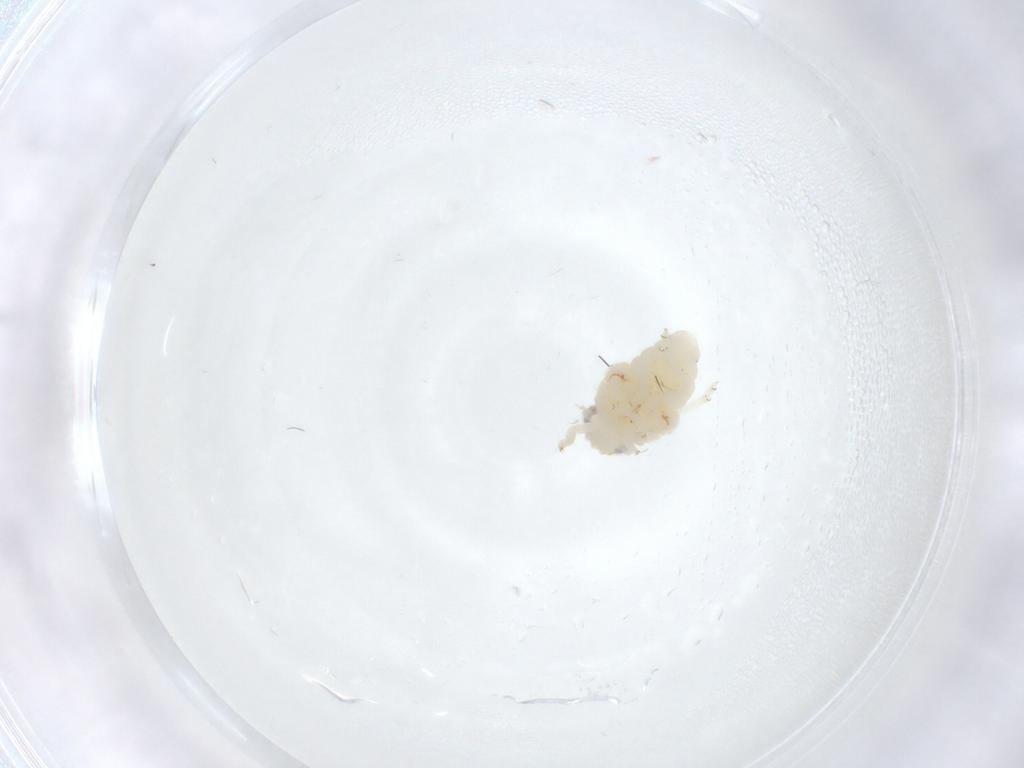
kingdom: Animalia
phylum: Arthropoda
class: Insecta
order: Hemiptera
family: Nogodinidae
